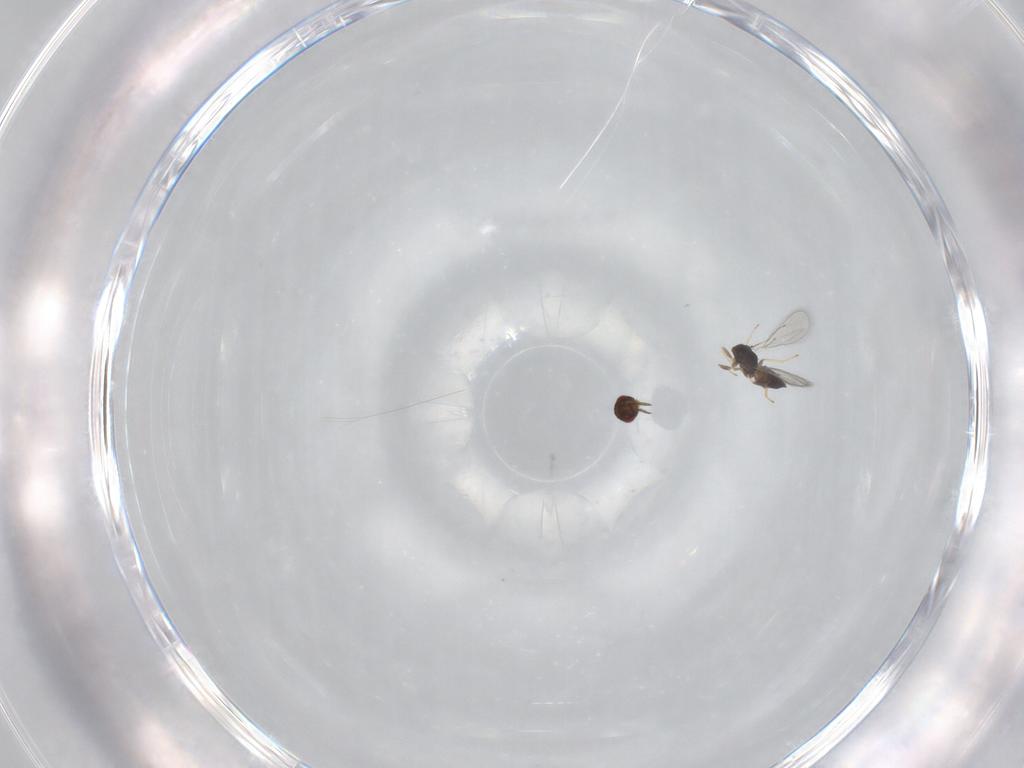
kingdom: Animalia
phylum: Arthropoda
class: Insecta
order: Hymenoptera
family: Eulophidae
